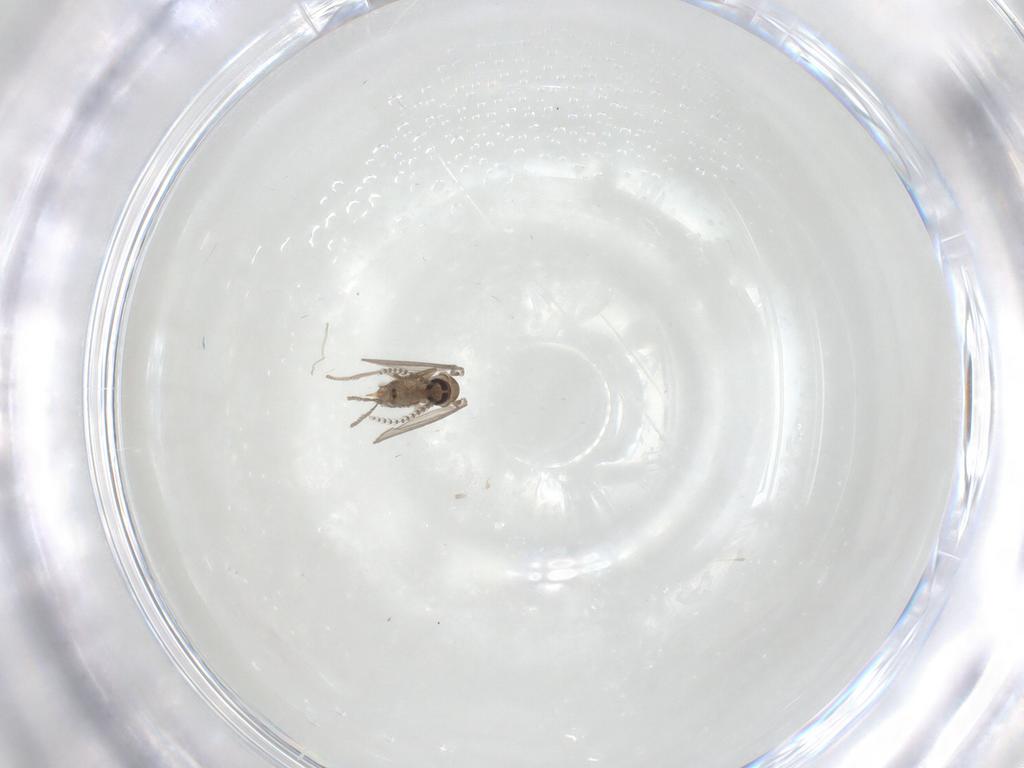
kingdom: Animalia
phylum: Arthropoda
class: Insecta
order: Diptera
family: Psychodidae
